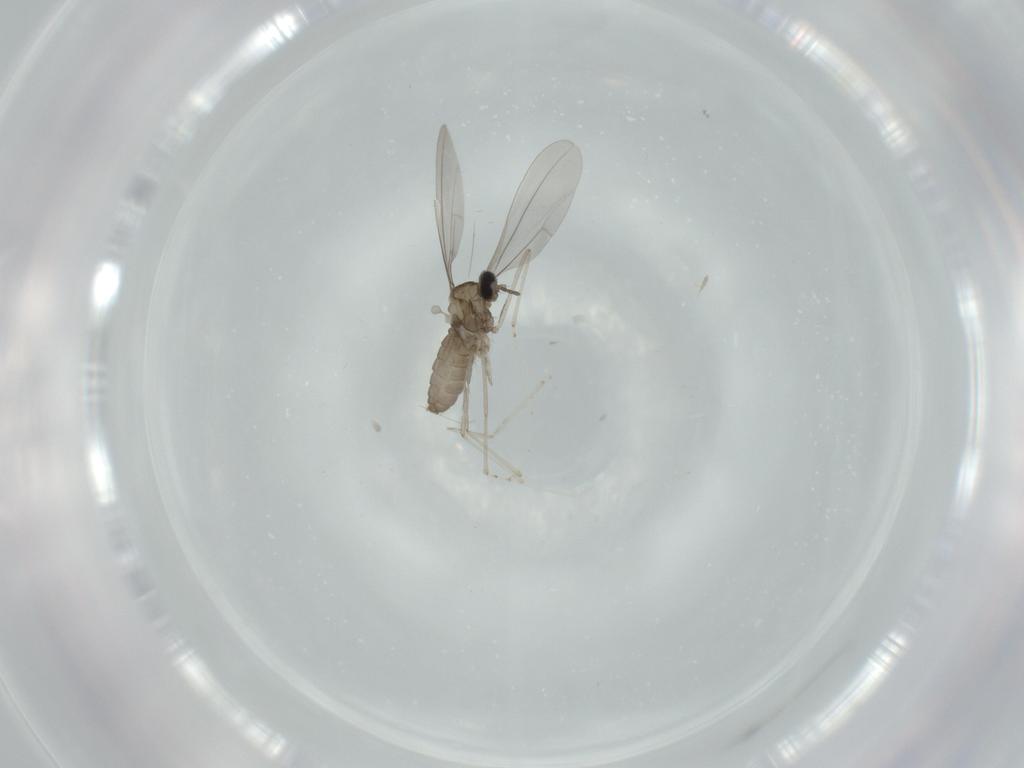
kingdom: Animalia
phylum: Arthropoda
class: Insecta
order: Diptera
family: Cecidomyiidae
